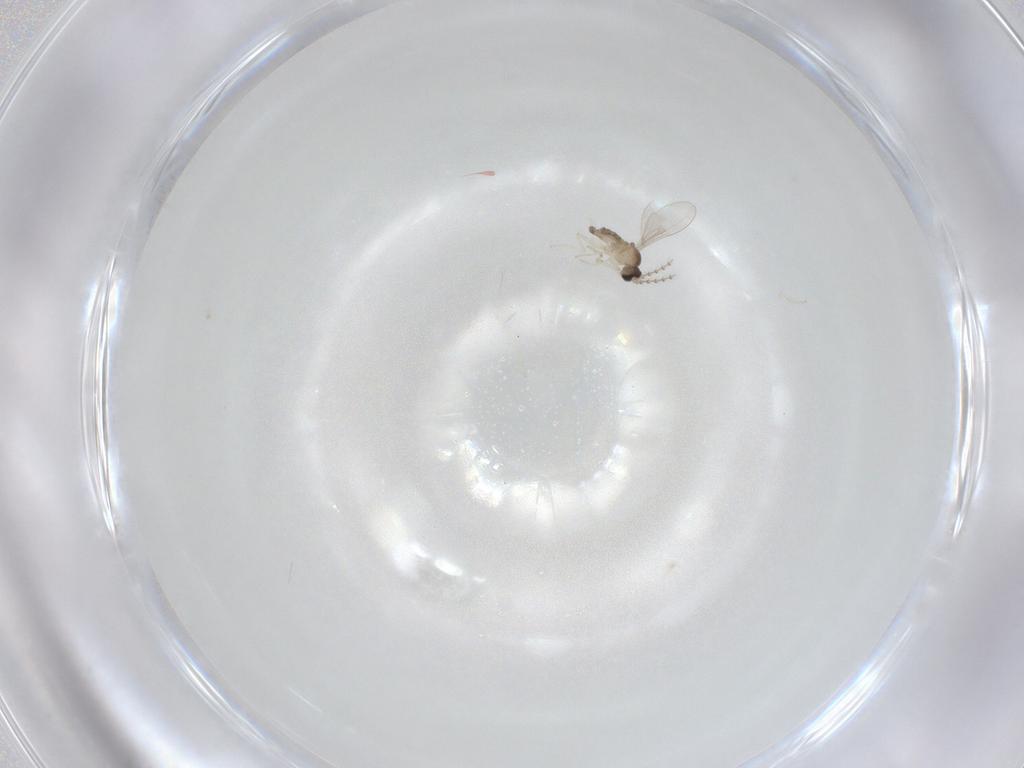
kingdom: Animalia
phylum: Arthropoda
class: Insecta
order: Diptera
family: Cecidomyiidae
